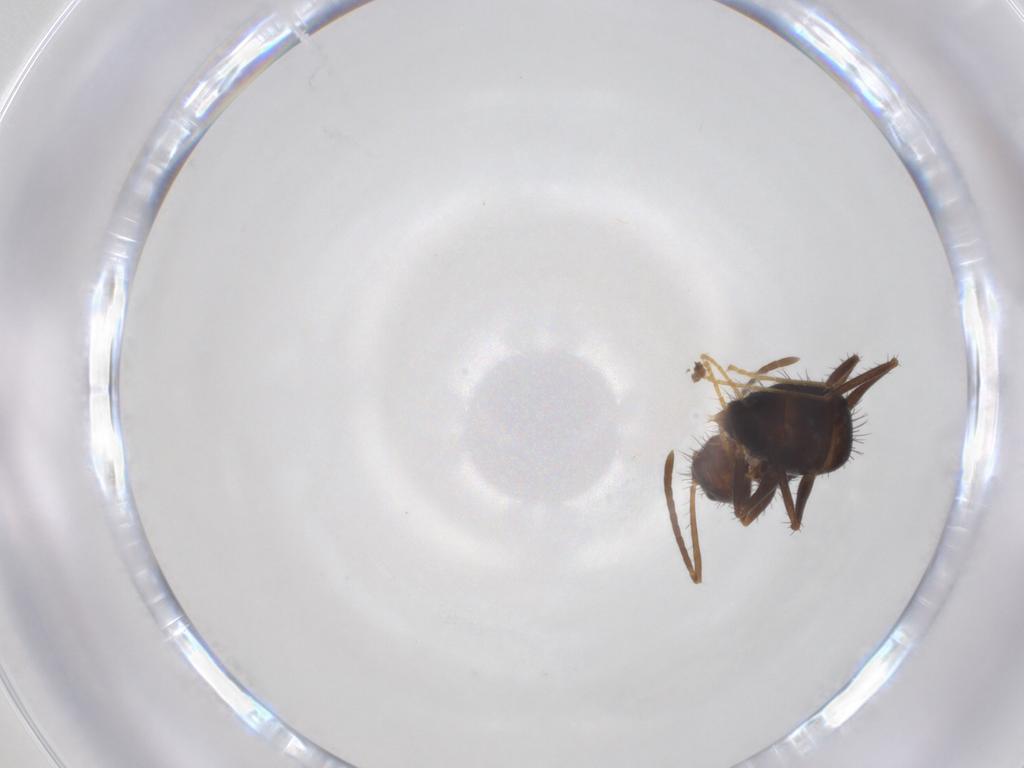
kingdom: Animalia
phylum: Arthropoda
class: Insecta
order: Hymenoptera
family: Formicidae
